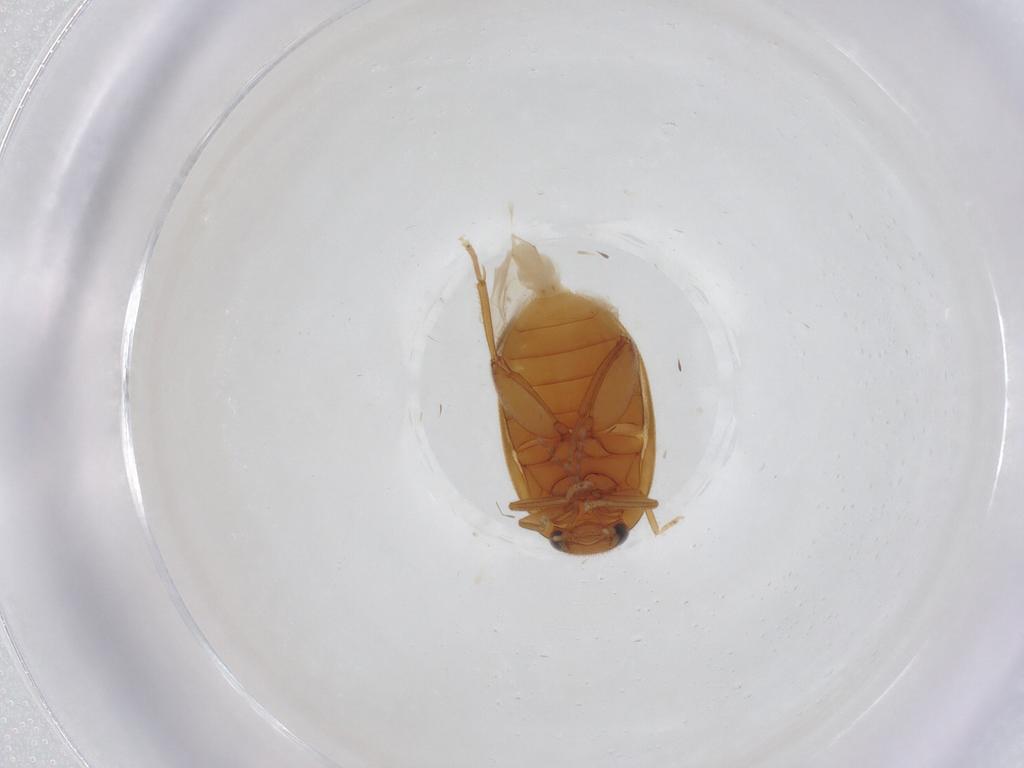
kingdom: Animalia
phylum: Arthropoda
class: Insecta
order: Coleoptera
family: Scirtidae
